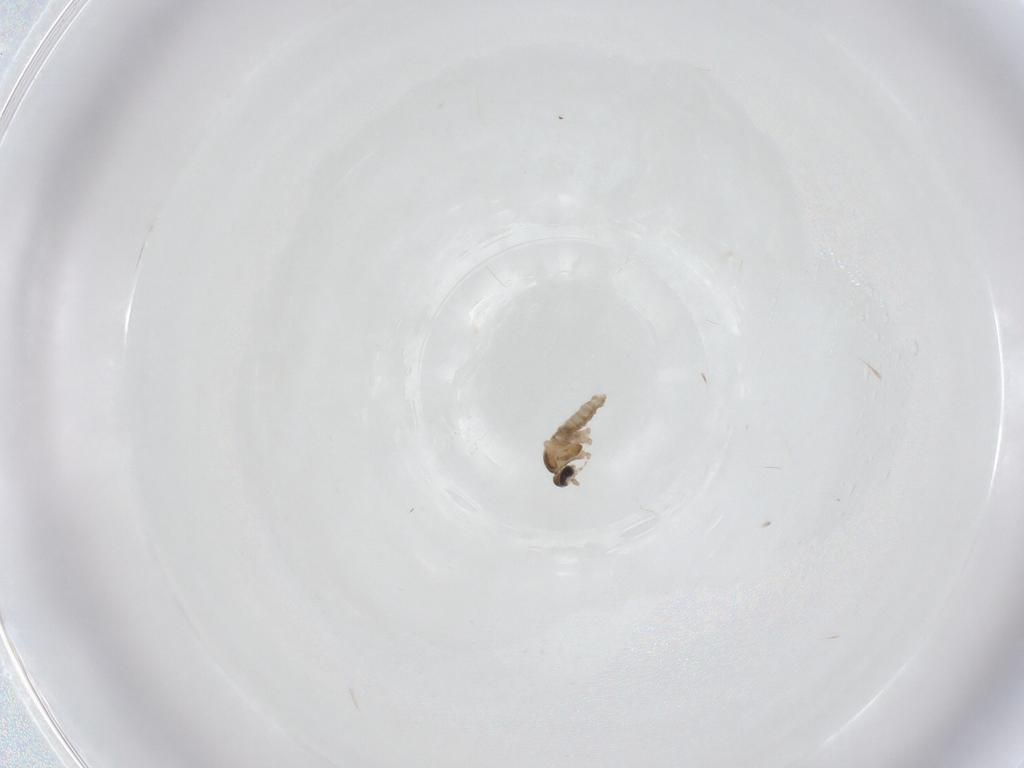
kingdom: Animalia
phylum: Arthropoda
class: Insecta
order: Diptera
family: Cecidomyiidae
